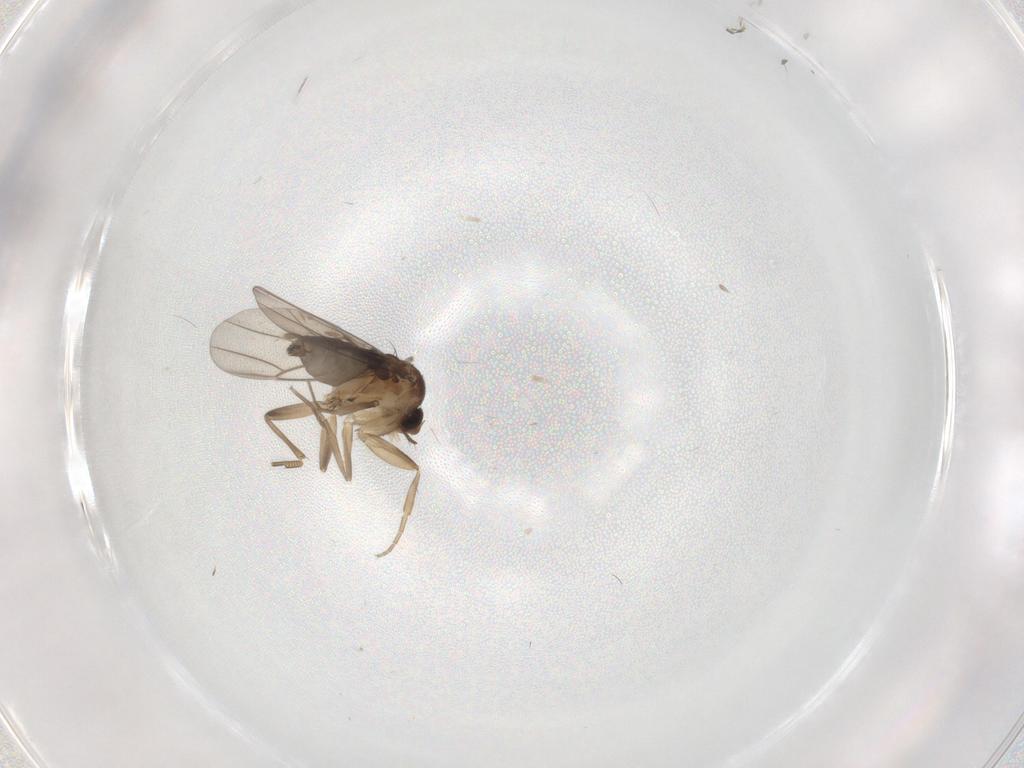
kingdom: Animalia
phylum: Arthropoda
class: Insecta
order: Diptera
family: Phoridae
